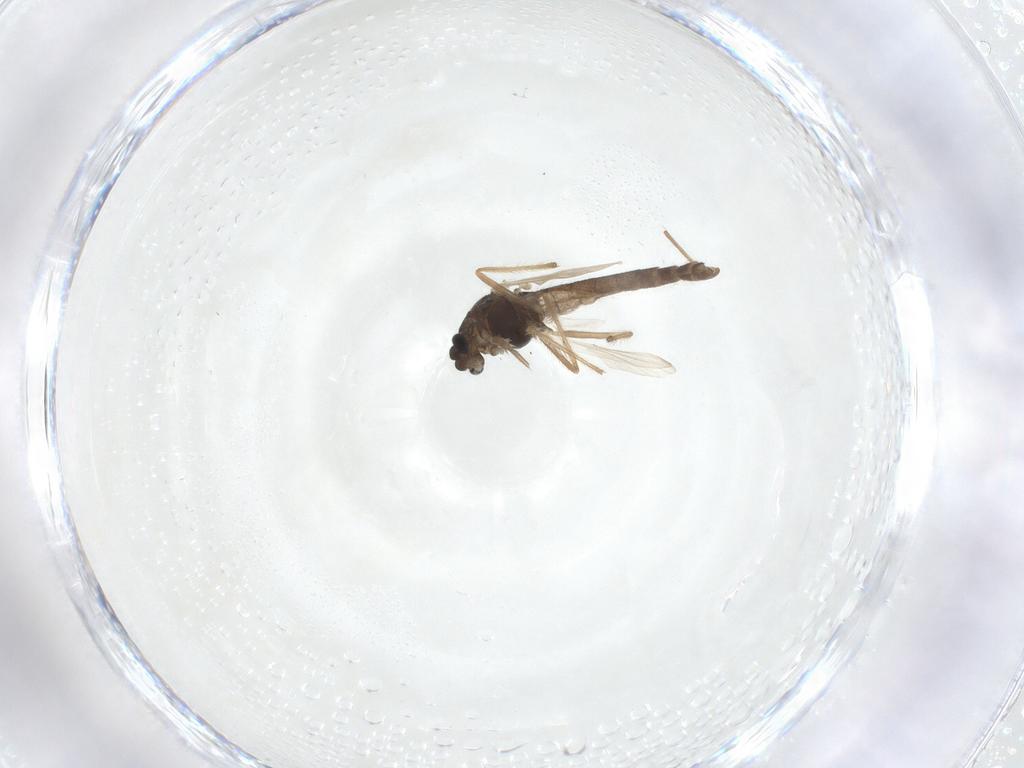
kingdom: Animalia
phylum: Arthropoda
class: Insecta
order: Diptera
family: Chironomidae
